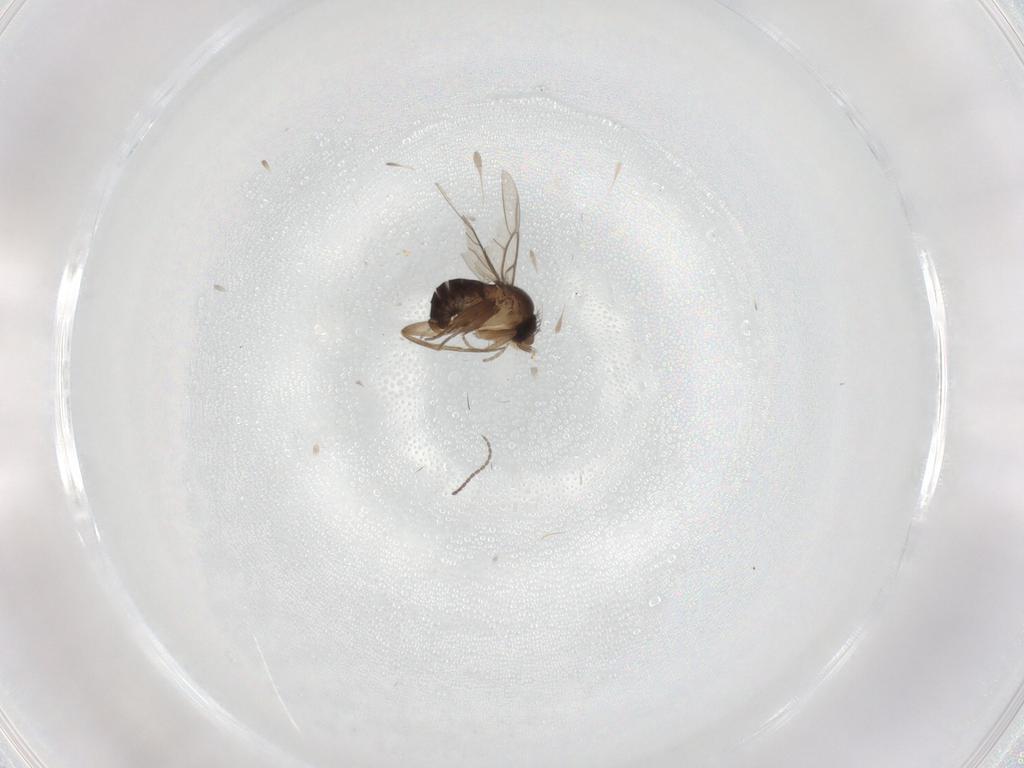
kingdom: Animalia
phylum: Arthropoda
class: Insecta
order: Diptera
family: Phoridae
